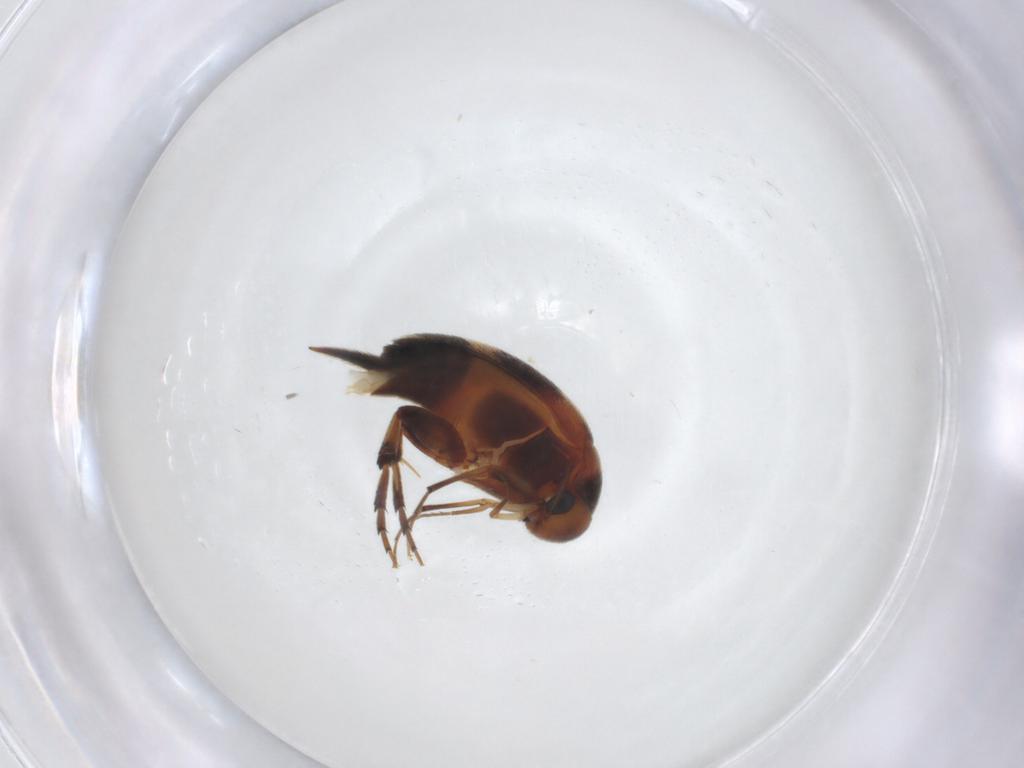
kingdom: Animalia
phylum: Arthropoda
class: Insecta
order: Coleoptera
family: Mordellidae
